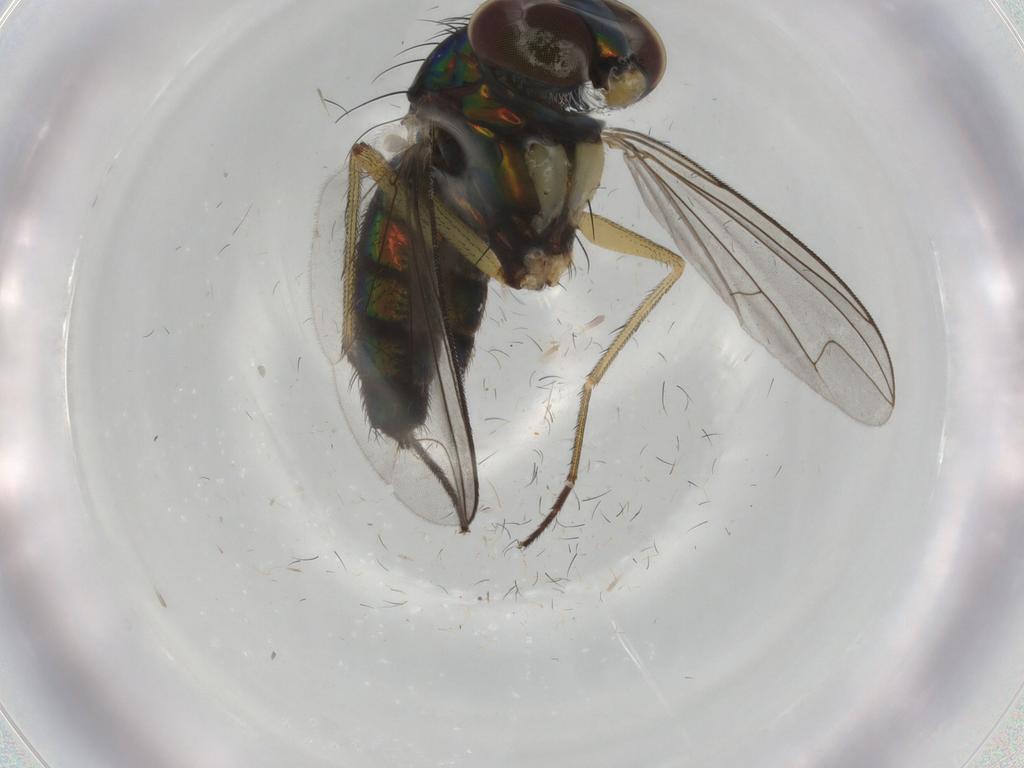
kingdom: Animalia
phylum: Arthropoda
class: Insecta
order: Diptera
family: Dolichopodidae
